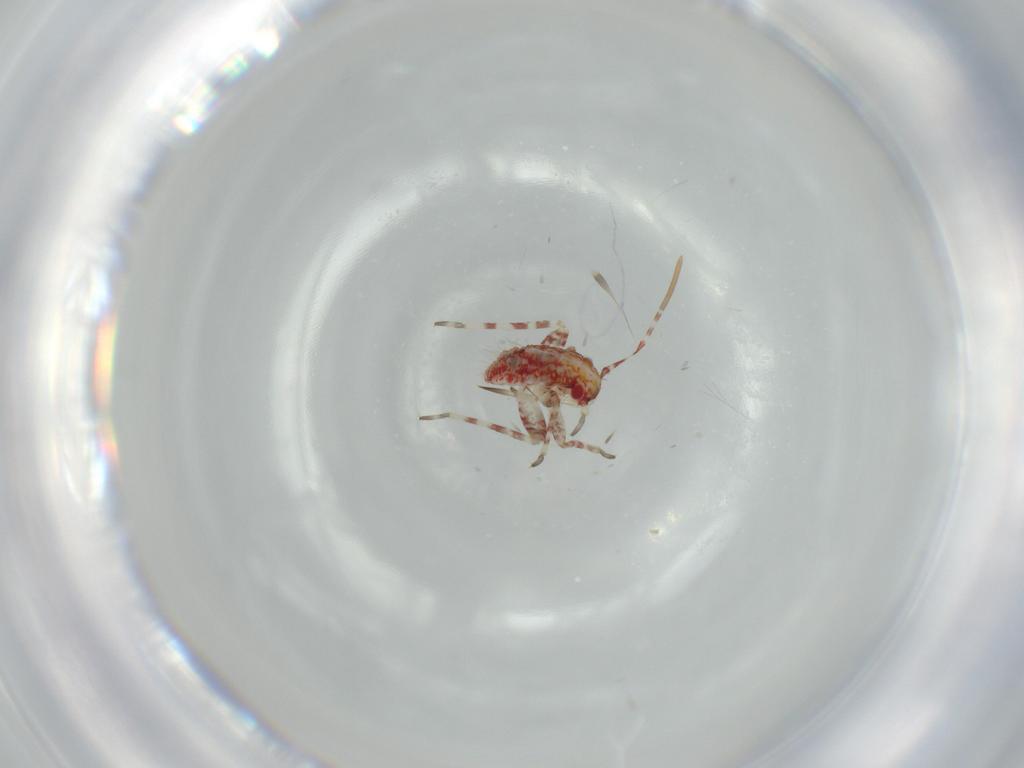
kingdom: Animalia
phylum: Arthropoda
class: Insecta
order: Hemiptera
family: Miridae
